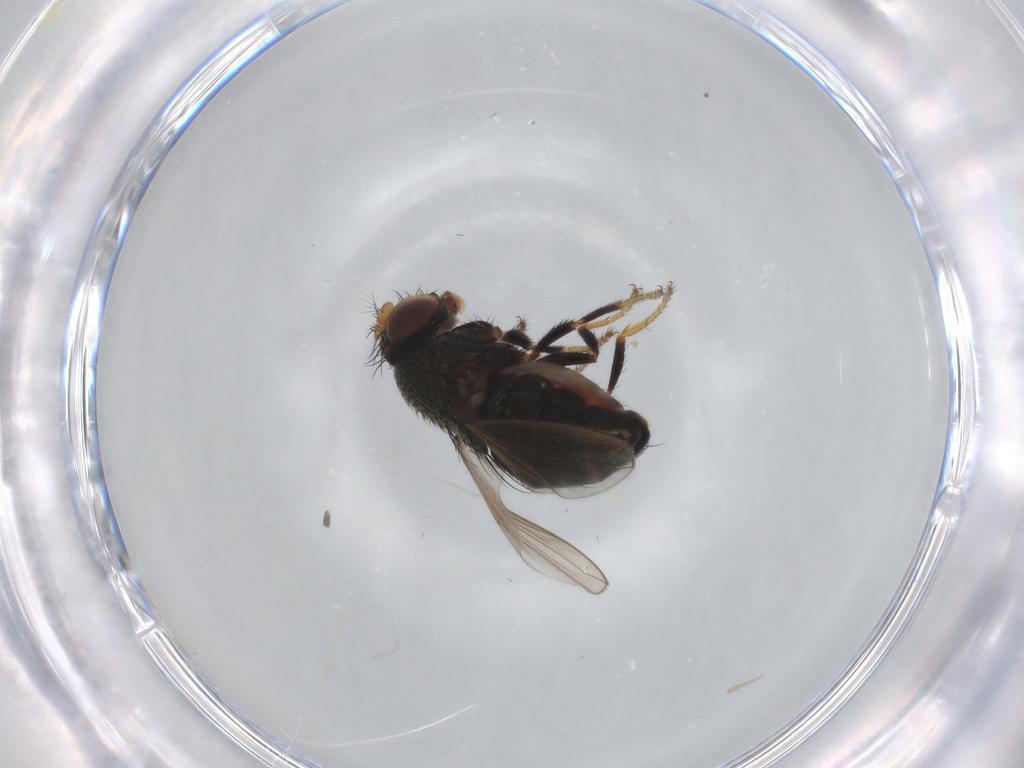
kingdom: Animalia
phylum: Arthropoda
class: Insecta
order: Diptera
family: Ephydridae
